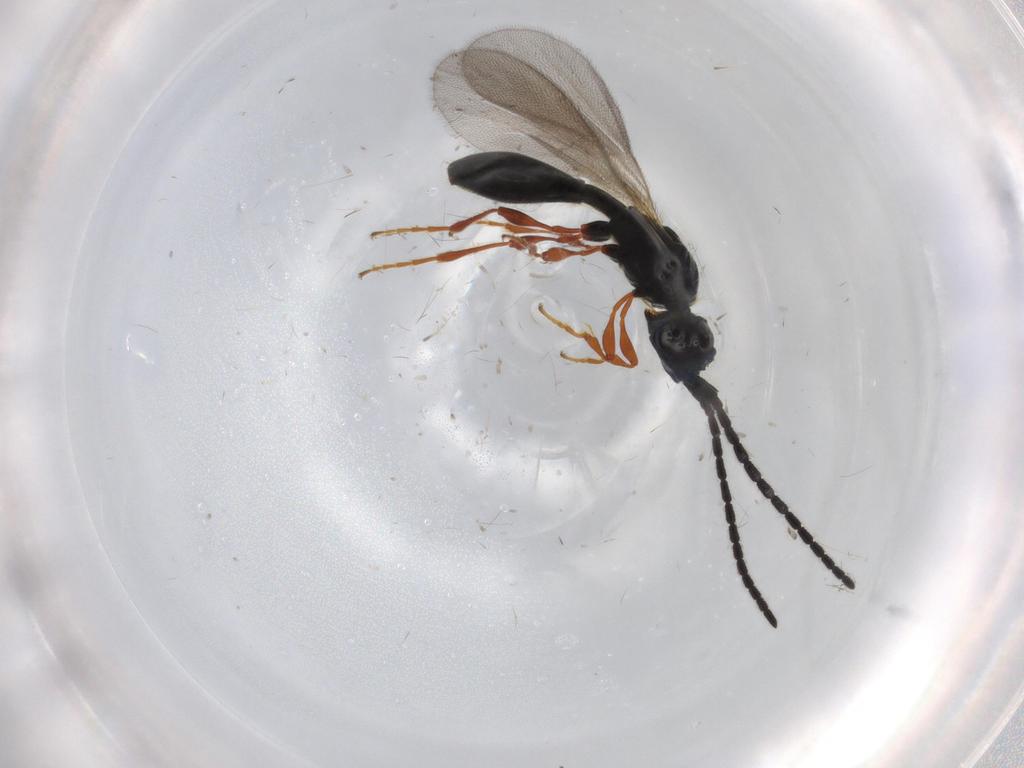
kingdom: Animalia
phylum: Arthropoda
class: Insecta
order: Hymenoptera
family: Diapriidae
